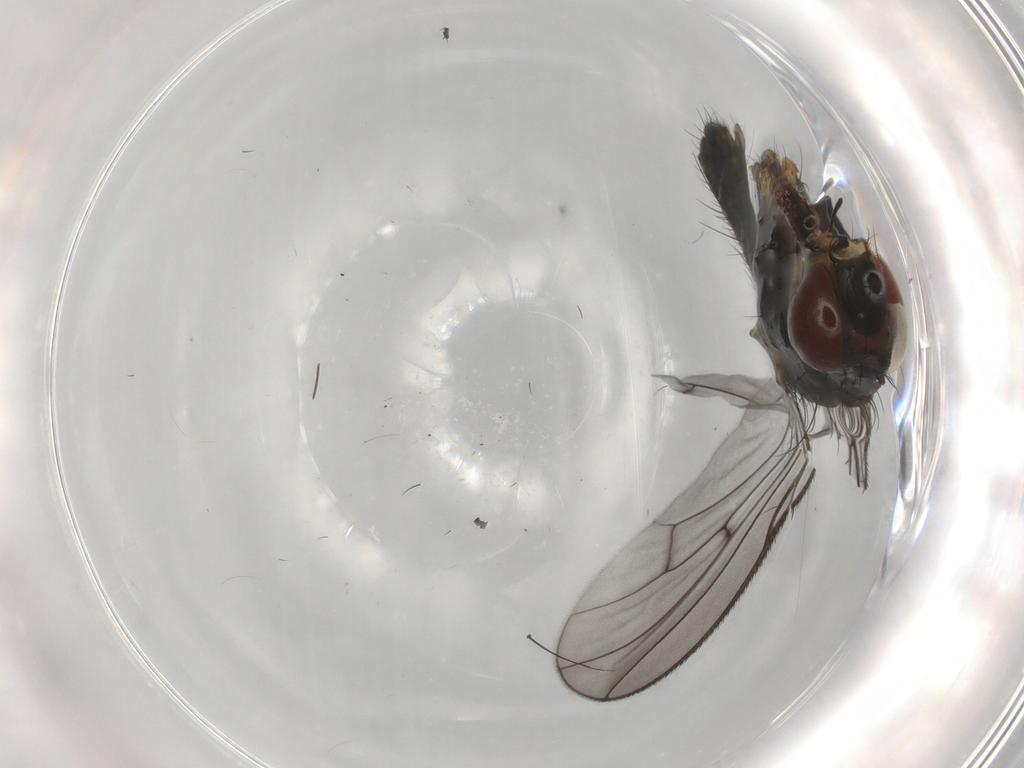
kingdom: Animalia
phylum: Arthropoda
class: Insecta
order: Diptera
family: Anthomyiidae
